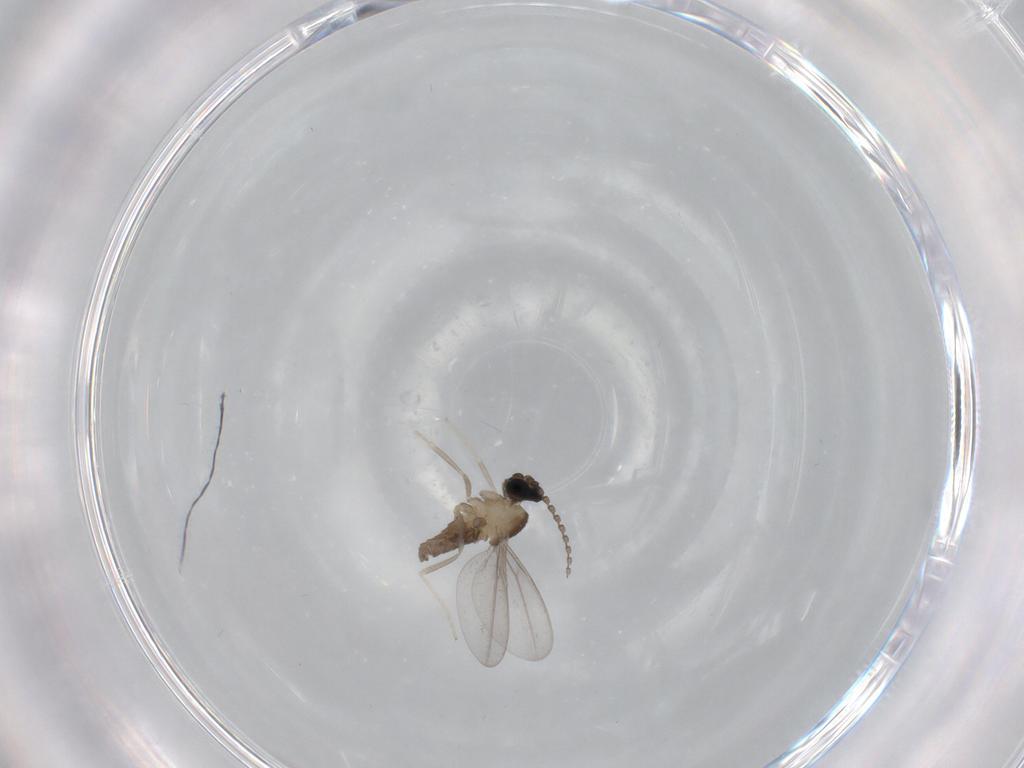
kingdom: Animalia
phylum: Arthropoda
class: Insecta
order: Diptera
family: Cecidomyiidae
